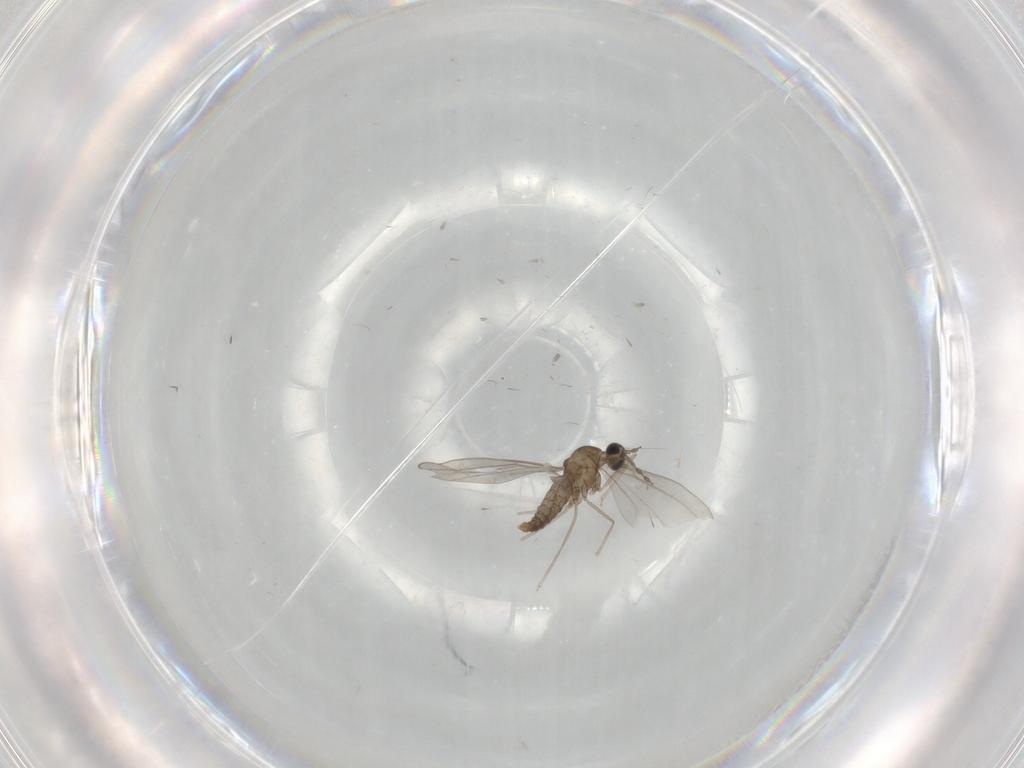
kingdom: Animalia
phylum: Arthropoda
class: Insecta
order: Diptera
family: Cecidomyiidae
